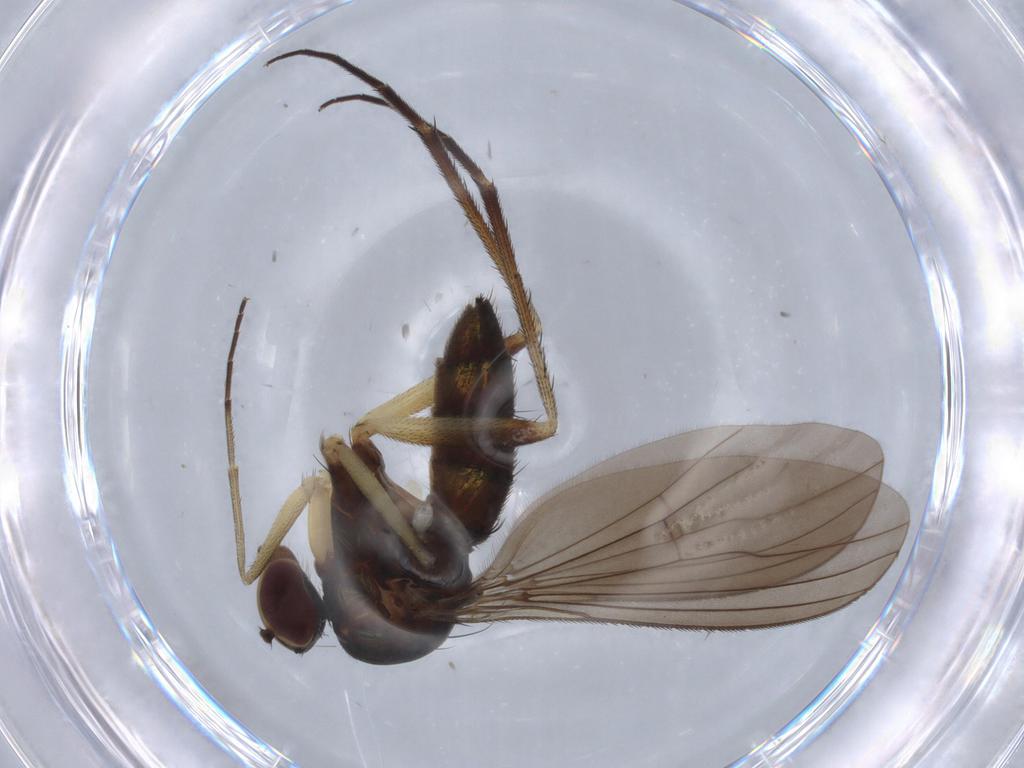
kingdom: Animalia
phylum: Arthropoda
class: Insecta
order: Diptera
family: Dolichopodidae
